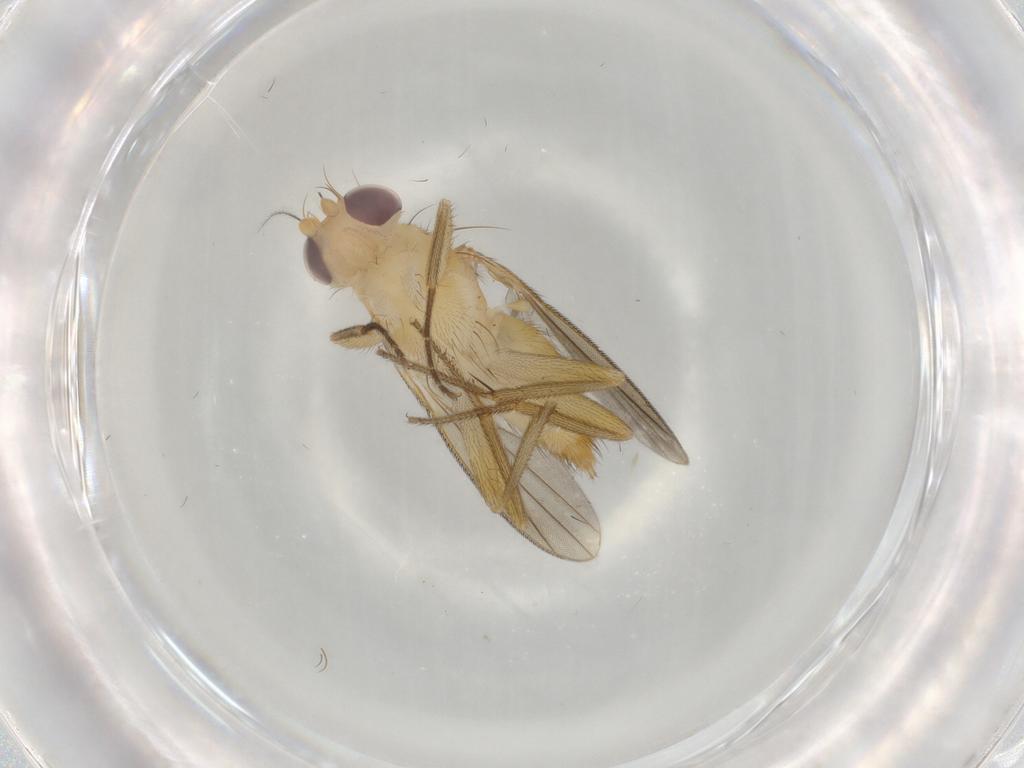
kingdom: Animalia
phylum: Arthropoda
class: Insecta
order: Diptera
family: Clusiidae
